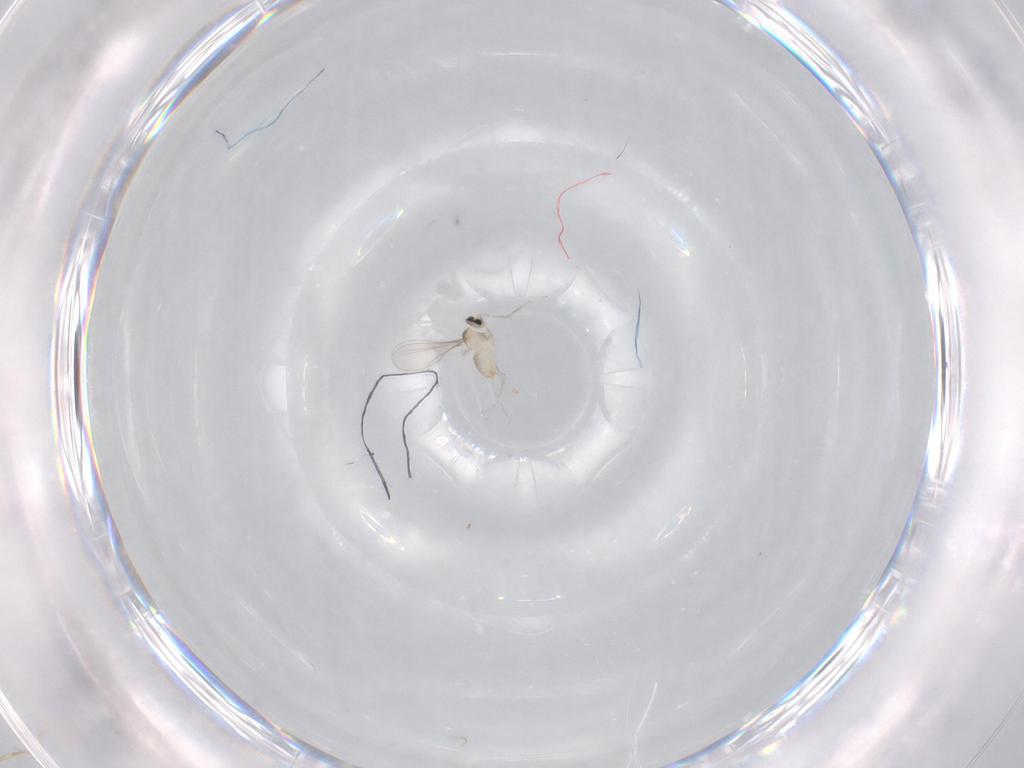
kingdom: Animalia
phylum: Arthropoda
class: Insecta
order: Diptera
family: Cecidomyiidae
